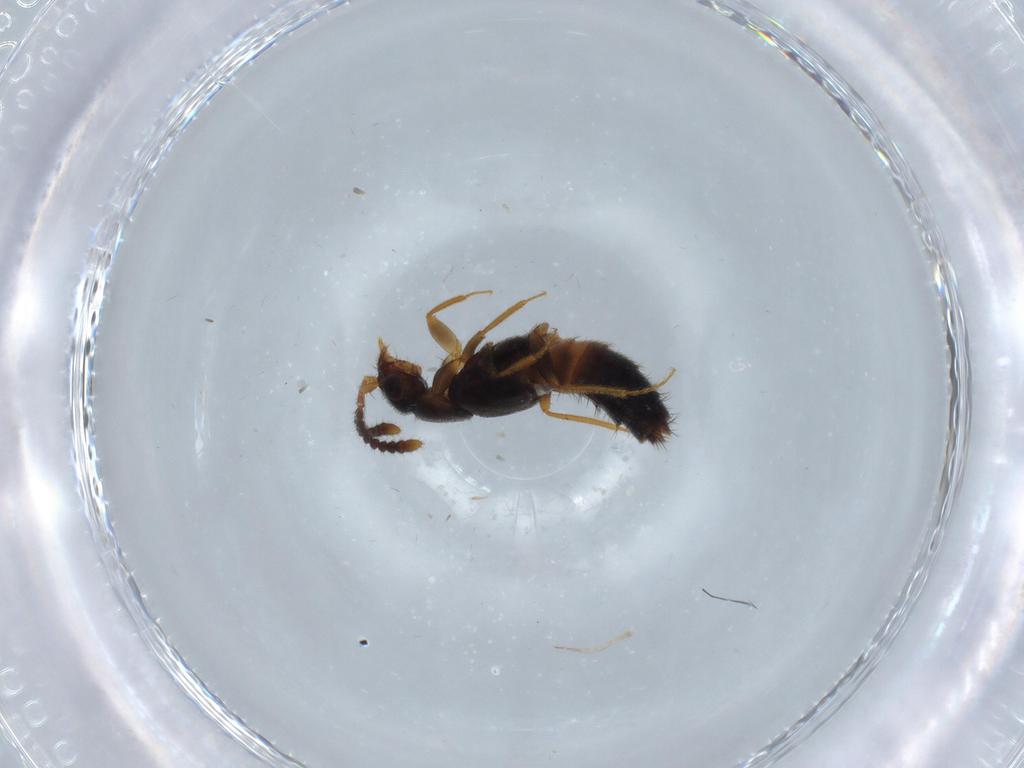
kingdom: Animalia
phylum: Arthropoda
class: Insecta
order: Coleoptera
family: Staphylinidae
